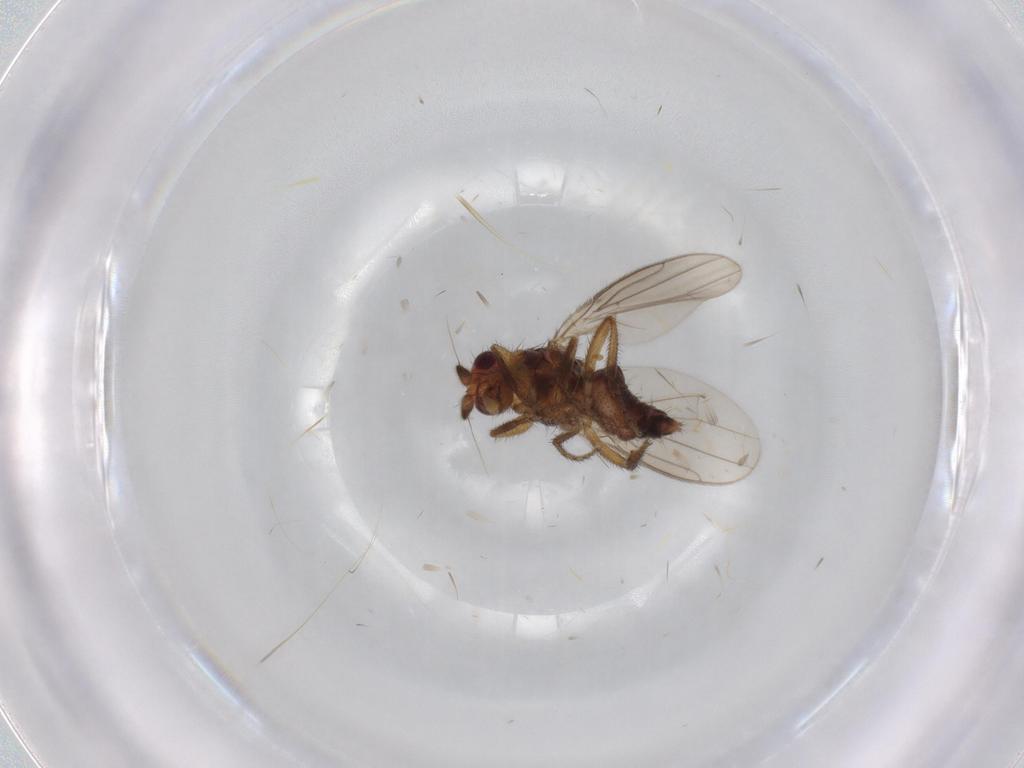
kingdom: Animalia
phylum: Arthropoda
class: Insecta
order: Diptera
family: Sphaeroceridae
